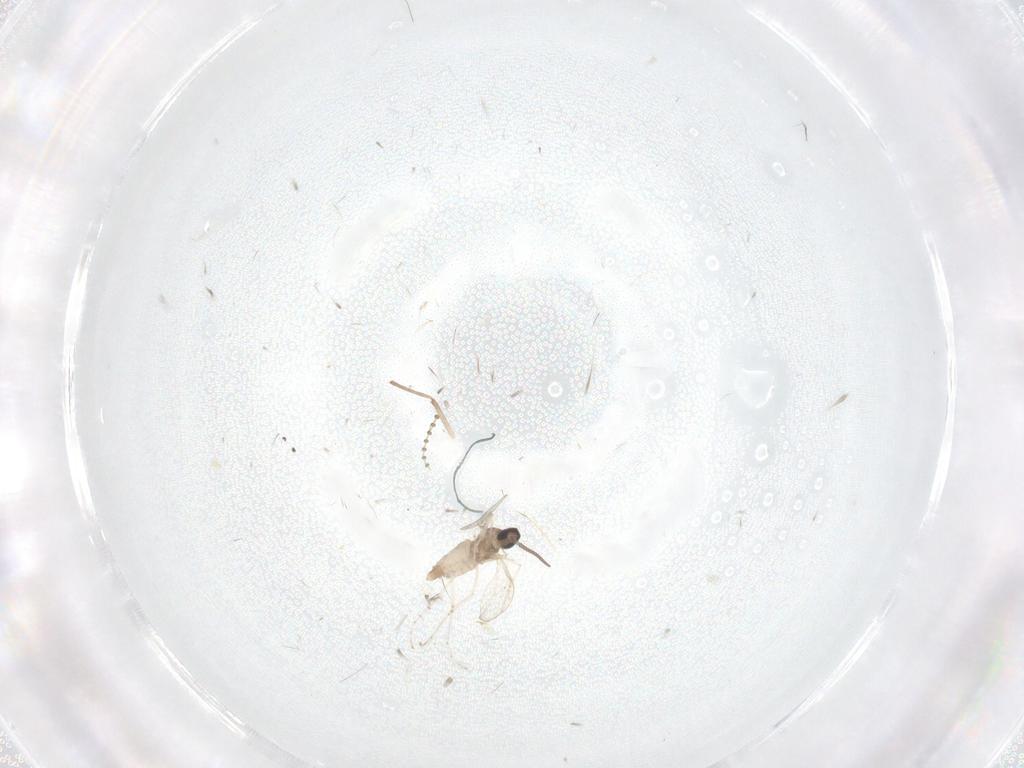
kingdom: Animalia
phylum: Arthropoda
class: Insecta
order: Diptera
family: Cecidomyiidae
